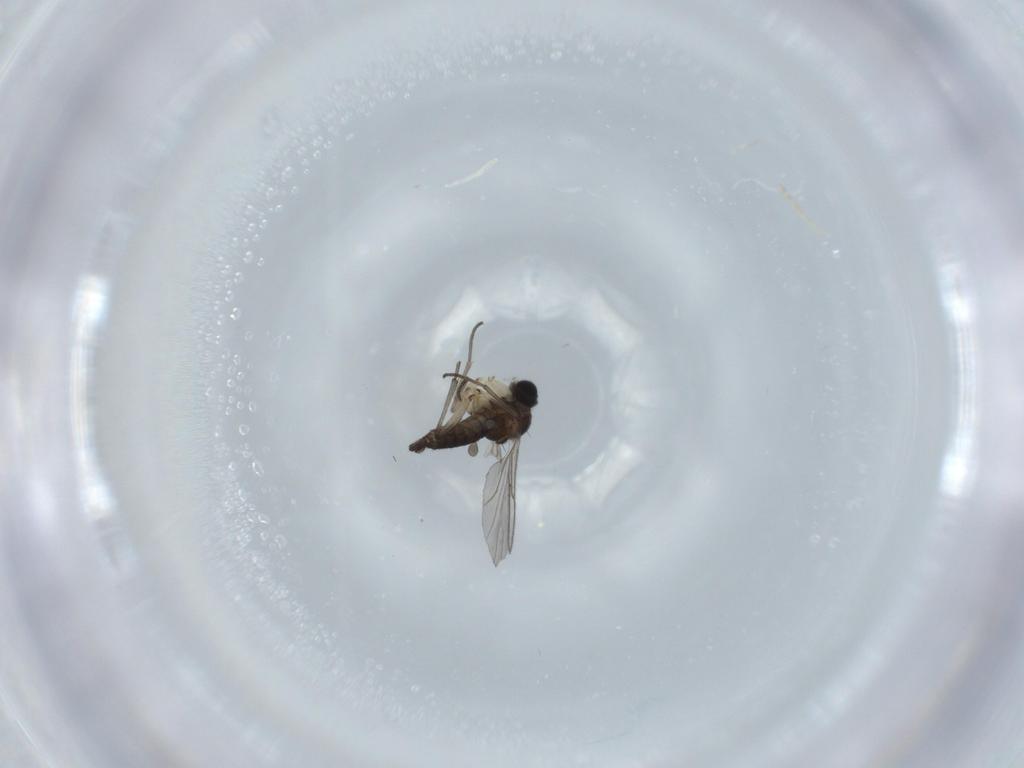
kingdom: Animalia
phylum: Arthropoda
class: Insecta
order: Diptera
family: Sciaridae
